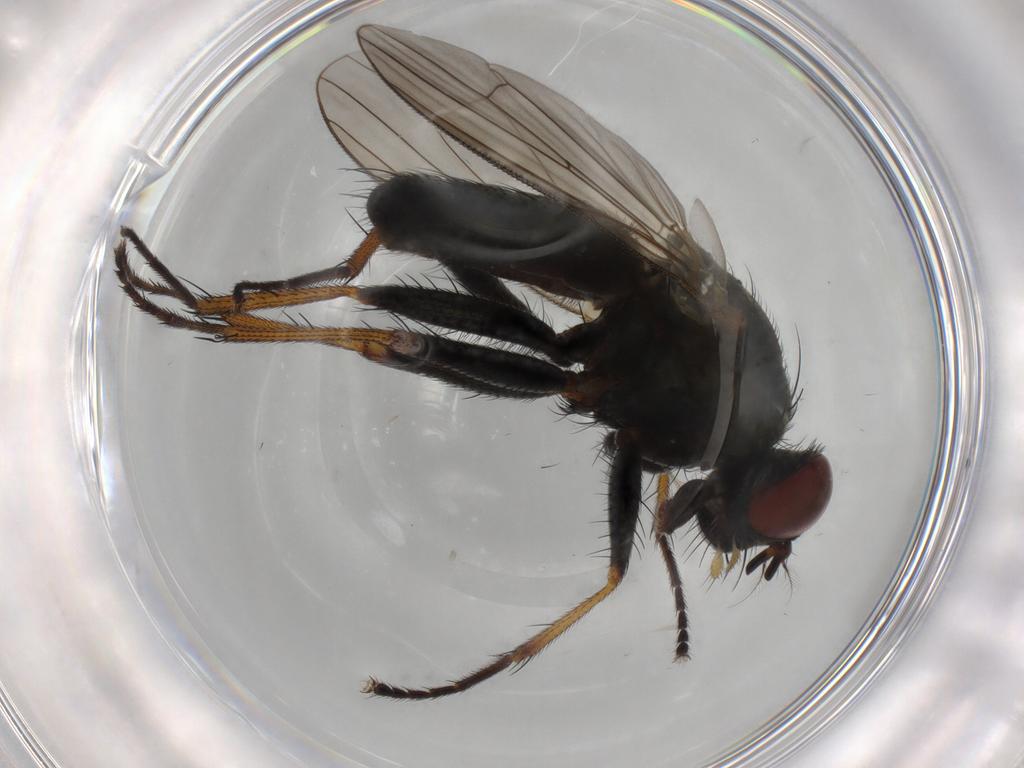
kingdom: Animalia
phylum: Arthropoda
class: Insecta
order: Diptera
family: Muscidae
